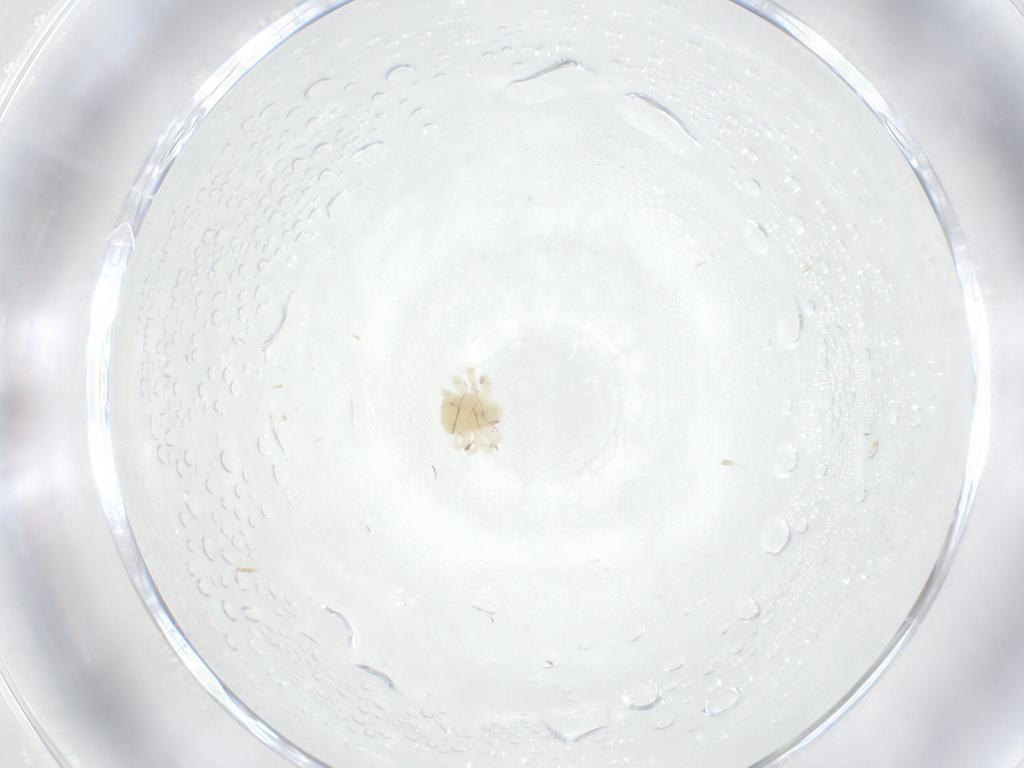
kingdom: Animalia
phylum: Arthropoda
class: Arachnida
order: Trombidiformes
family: Anystidae
